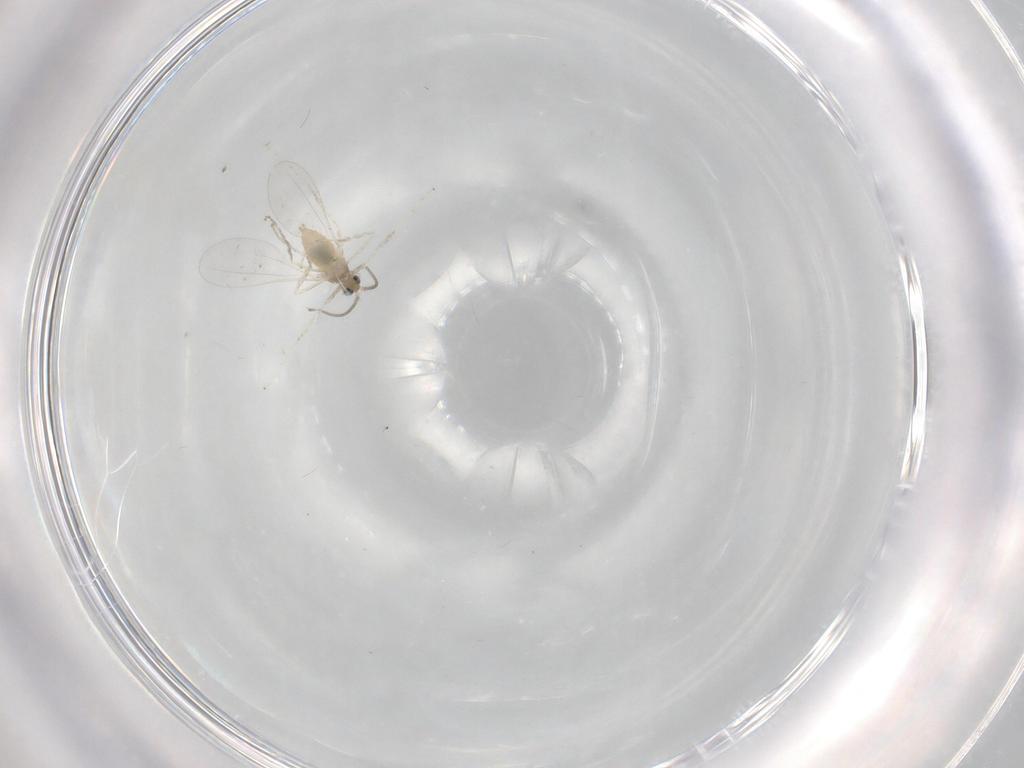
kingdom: Animalia
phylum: Arthropoda
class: Insecta
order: Diptera
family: Cecidomyiidae
